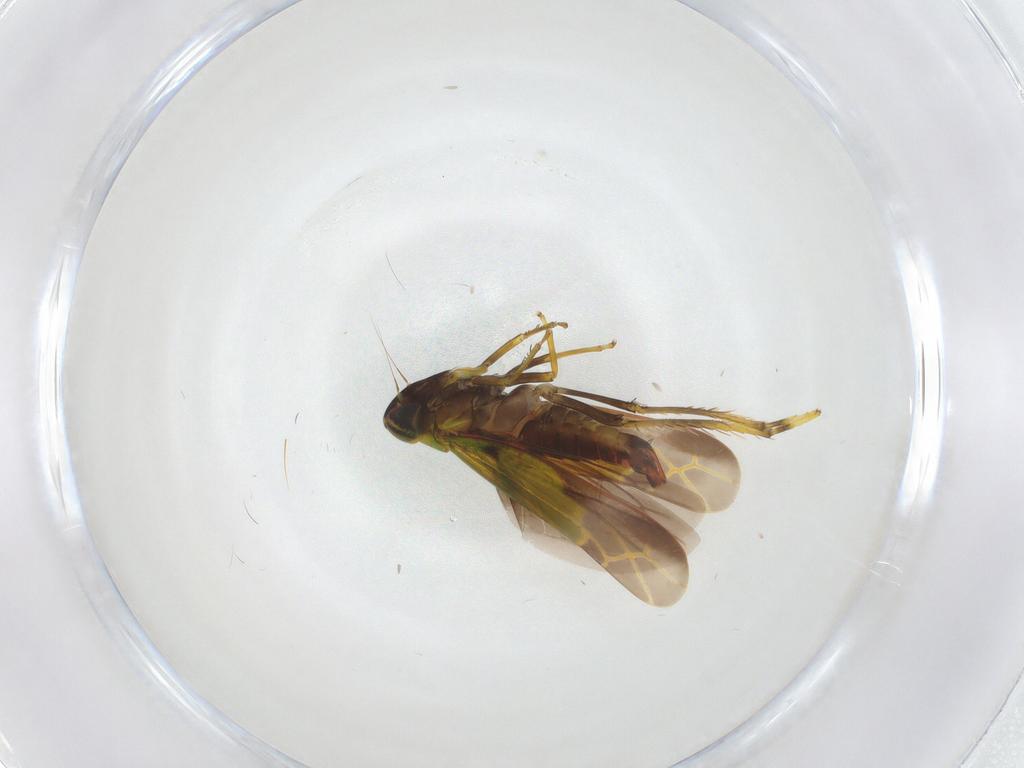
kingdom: Animalia
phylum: Arthropoda
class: Insecta
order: Hemiptera
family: Cicadellidae
